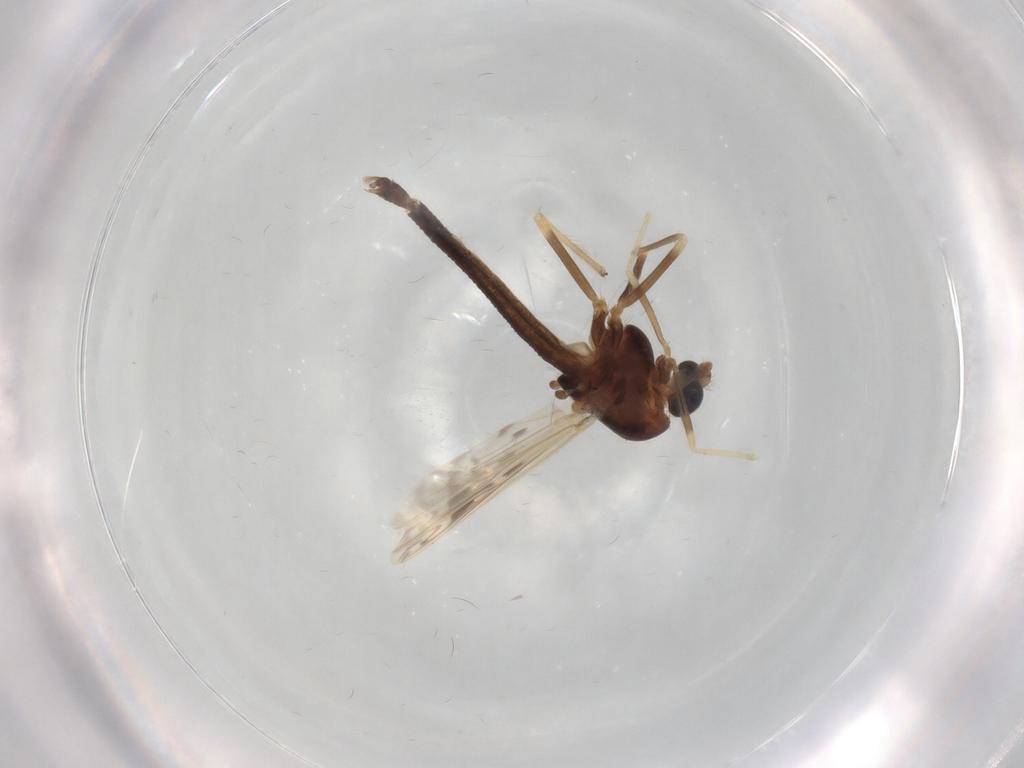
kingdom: Animalia
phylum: Arthropoda
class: Insecta
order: Diptera
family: Chironomidae
